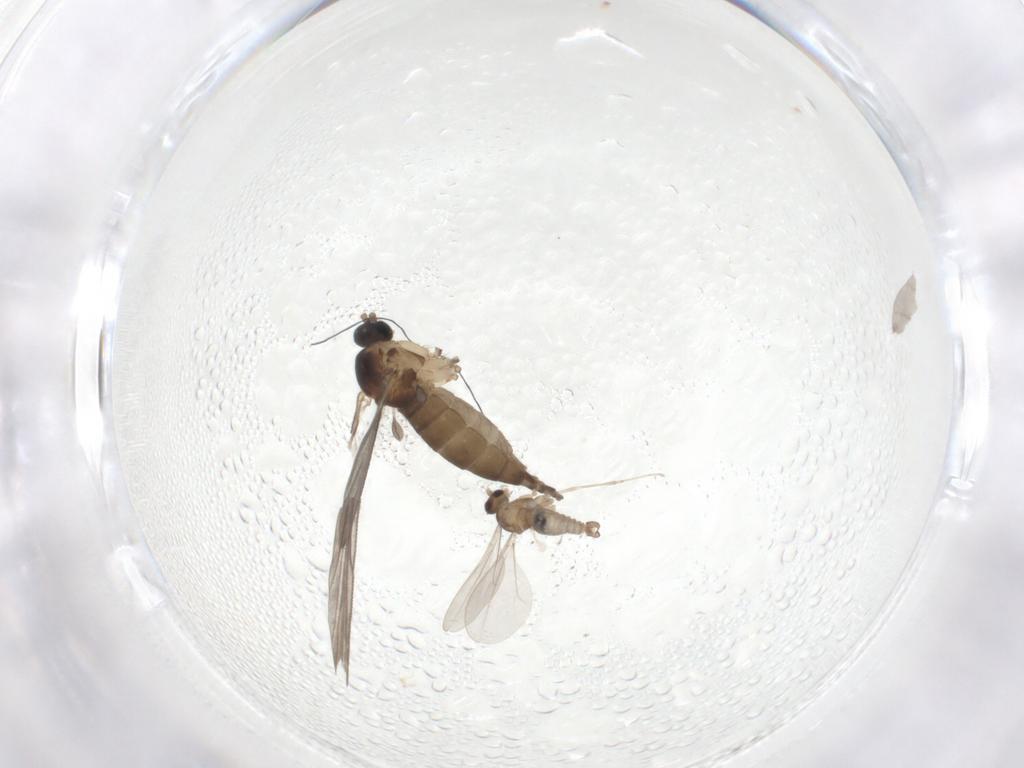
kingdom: Animalia
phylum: Arthropoda
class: Insecta
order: Diptera
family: Cecidomyiidae
